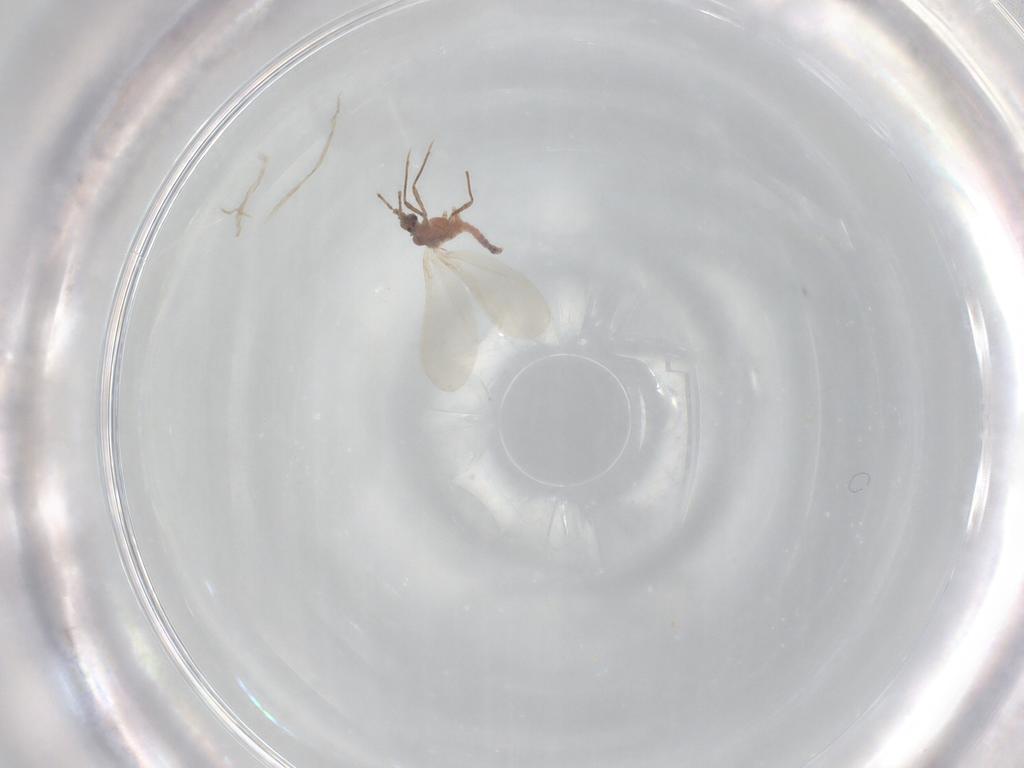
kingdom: Animalia
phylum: Arthropoda
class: Insecta
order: Hemiptera
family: Coccoidea_incertae_sedis
